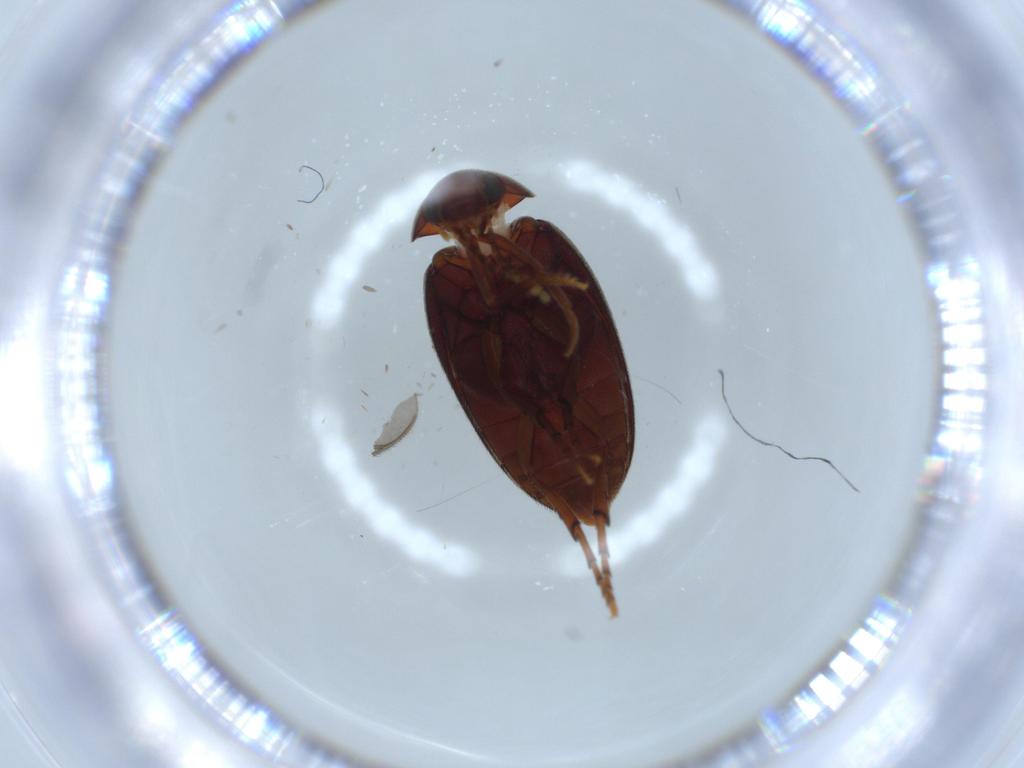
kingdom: Animalia
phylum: Arthropoda
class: Insecta
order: Coleoptera
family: Eucinetidae
